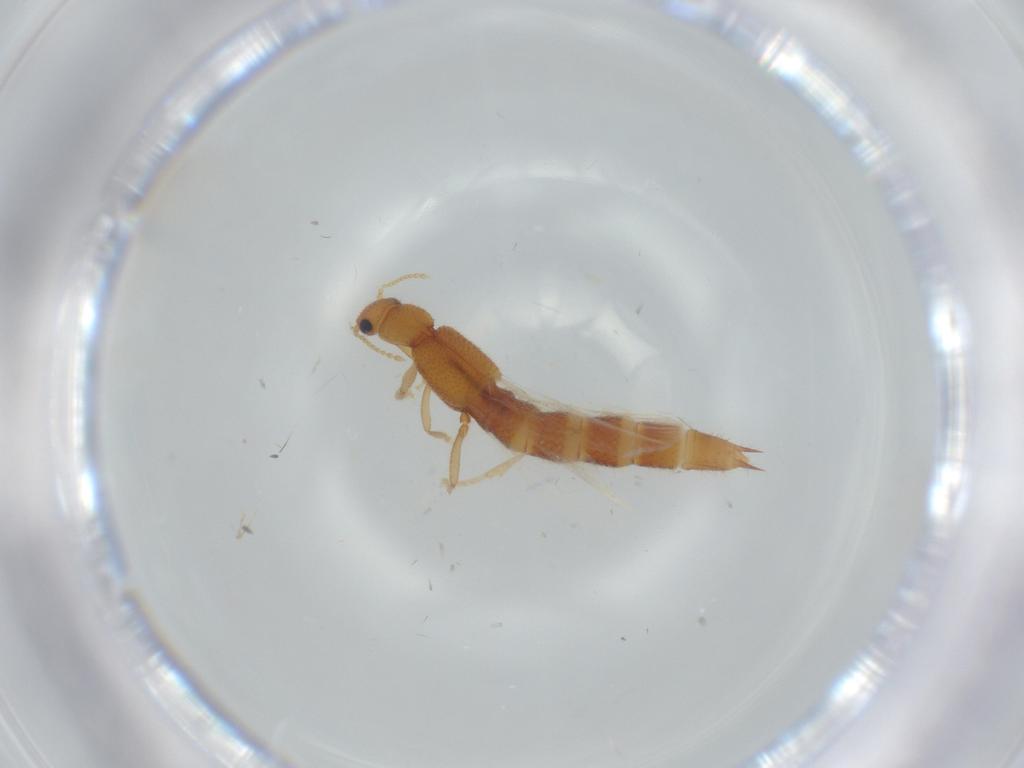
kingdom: Animalia
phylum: Arthropoda
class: Insecta
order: Coleoptera
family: Staphylinidae
